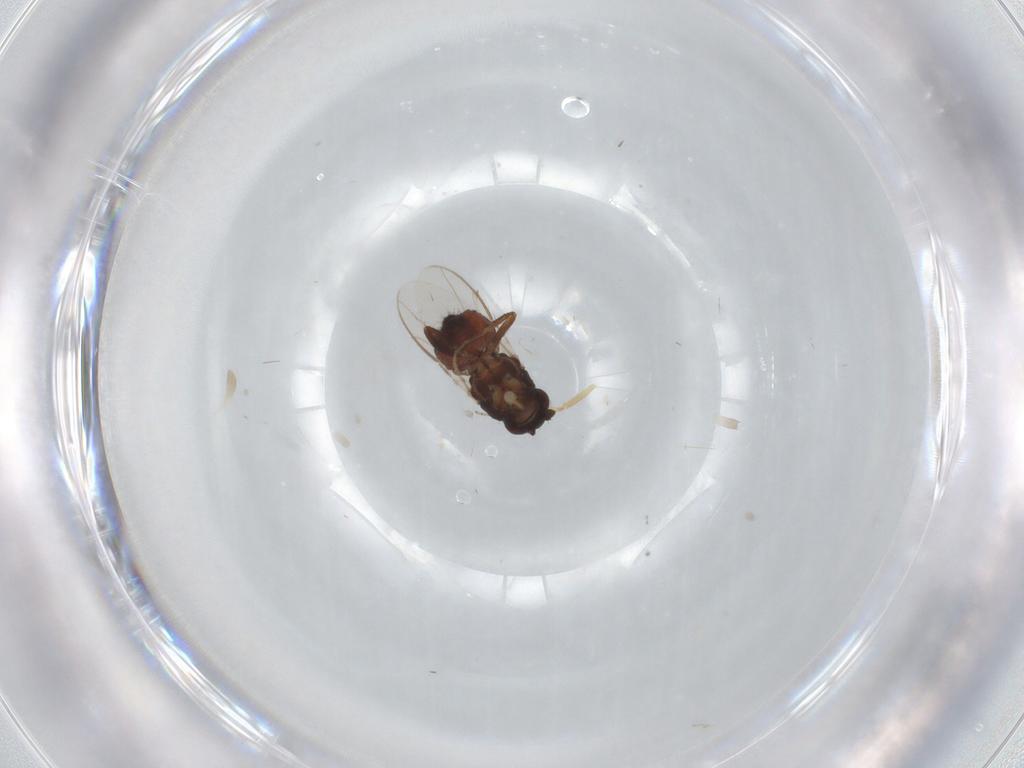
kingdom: Animalia
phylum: Arthropoda
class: Insecta
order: Diptera
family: Sphaeroceridae
